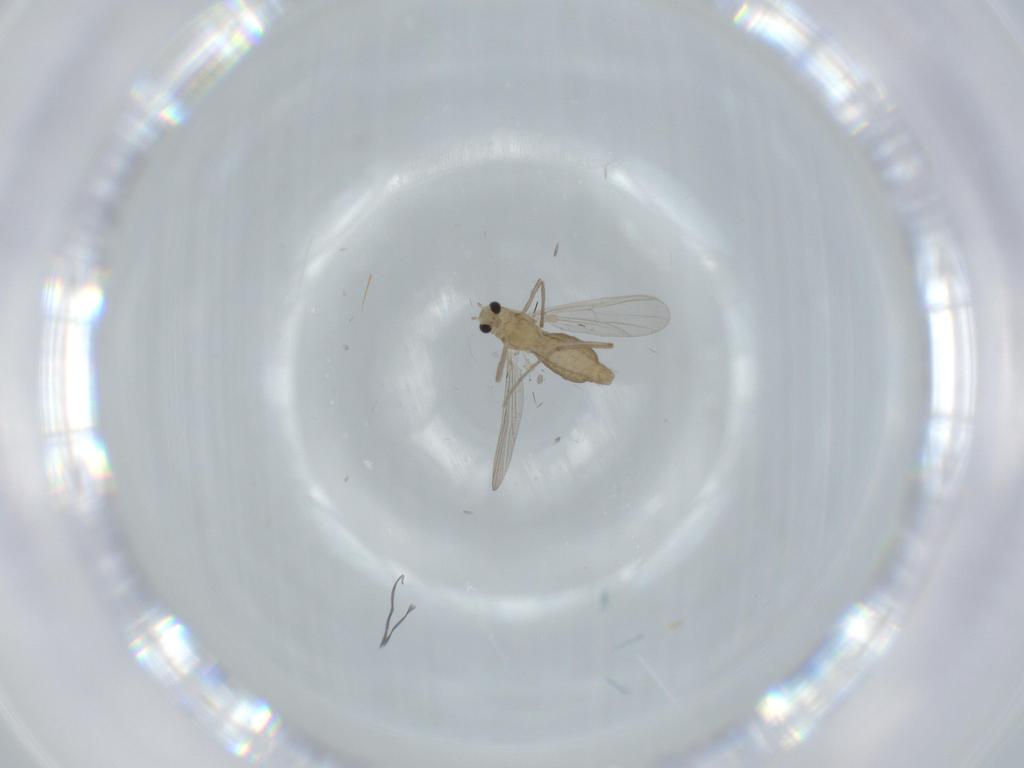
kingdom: Animalia
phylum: Arthropoda
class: Insecta
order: Diptera
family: Chironomidae
